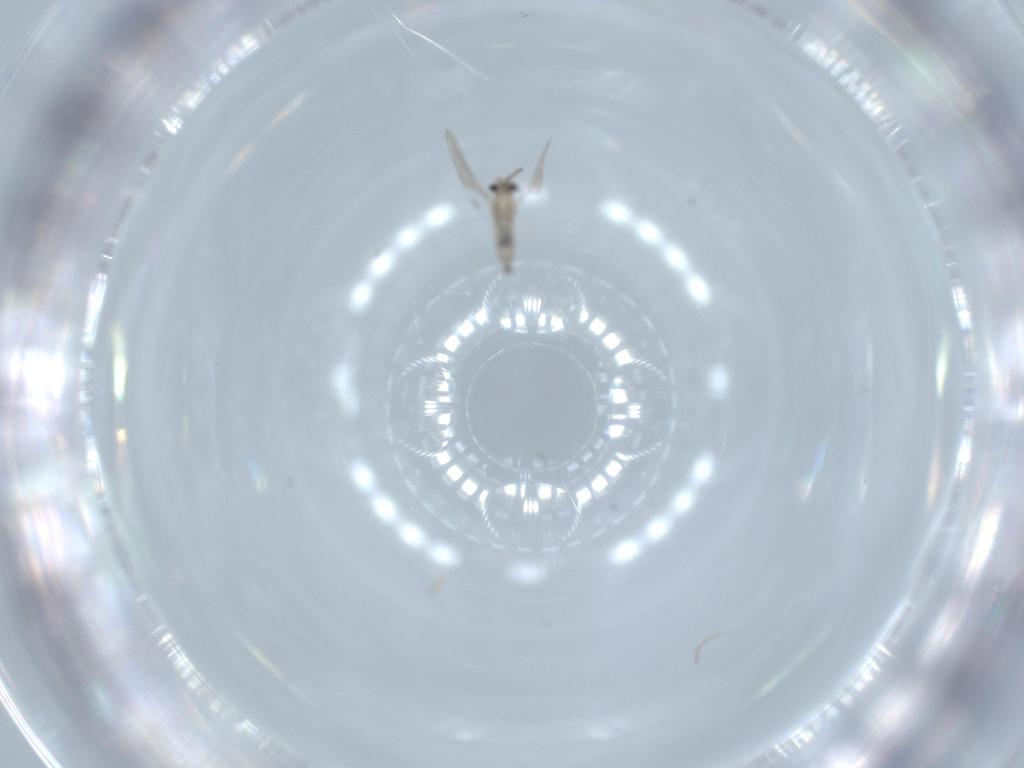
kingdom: Animalia
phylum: Arthropoda
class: Insecta
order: Diptera
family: Cecidomyiidae
